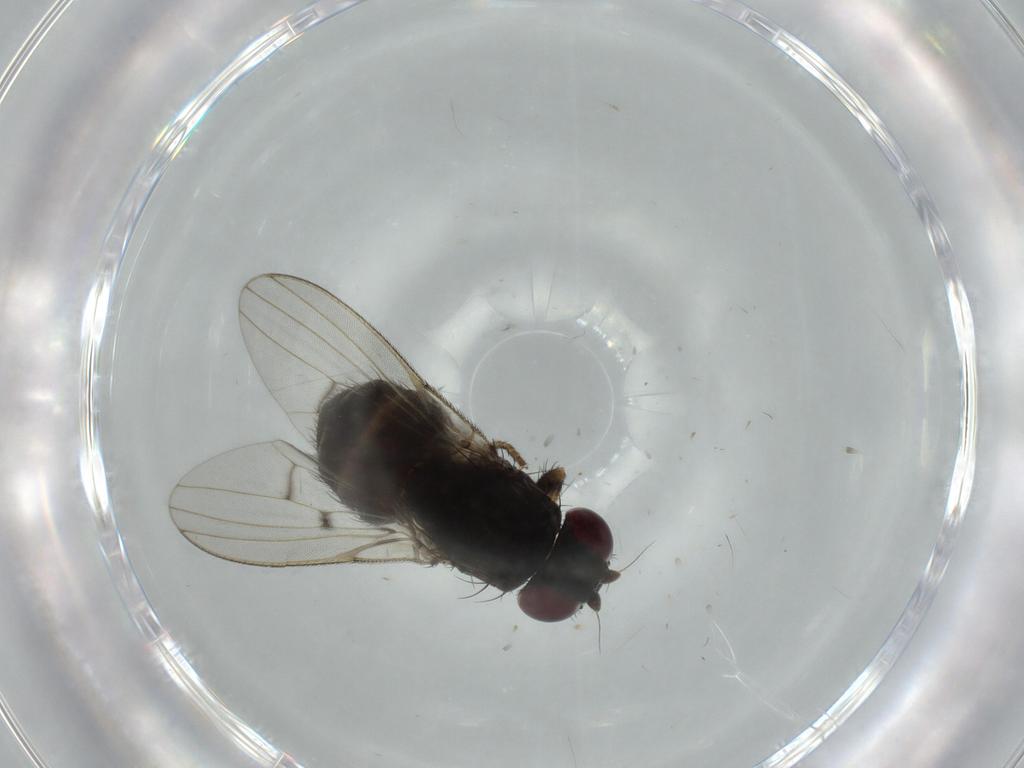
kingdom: Animalia
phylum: Arthropoda
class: Insecta
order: Diptera
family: Odiniidae
